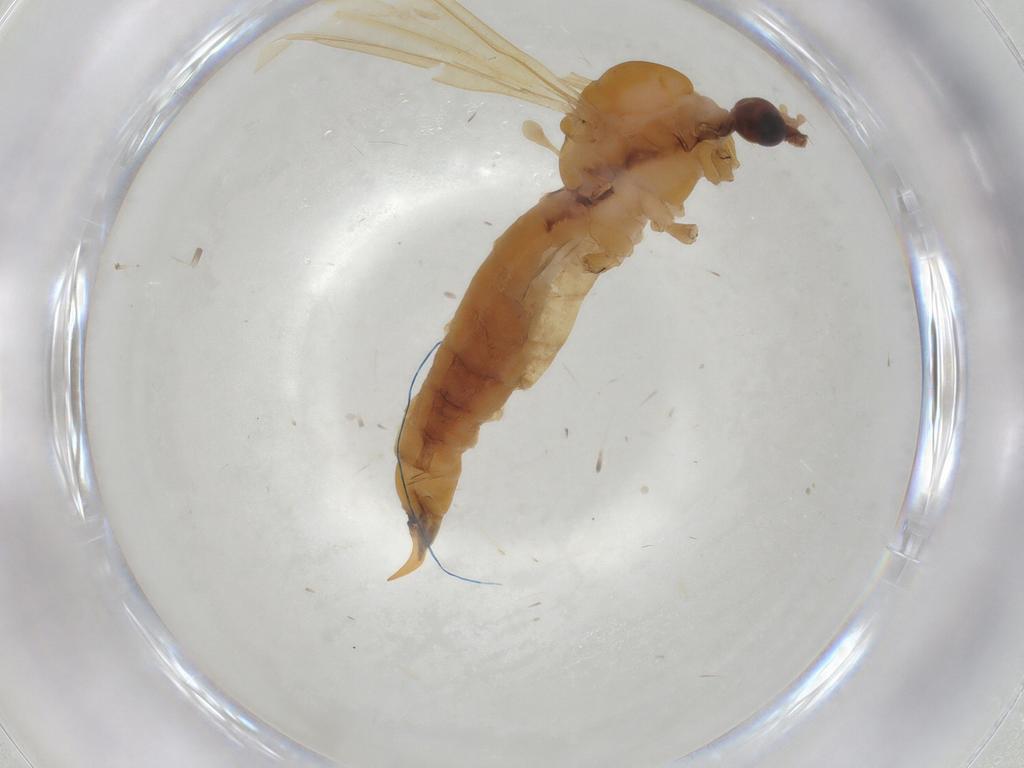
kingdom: Animalia
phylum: Arthropoda
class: Insecta
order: Diptera
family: Limoniidae
